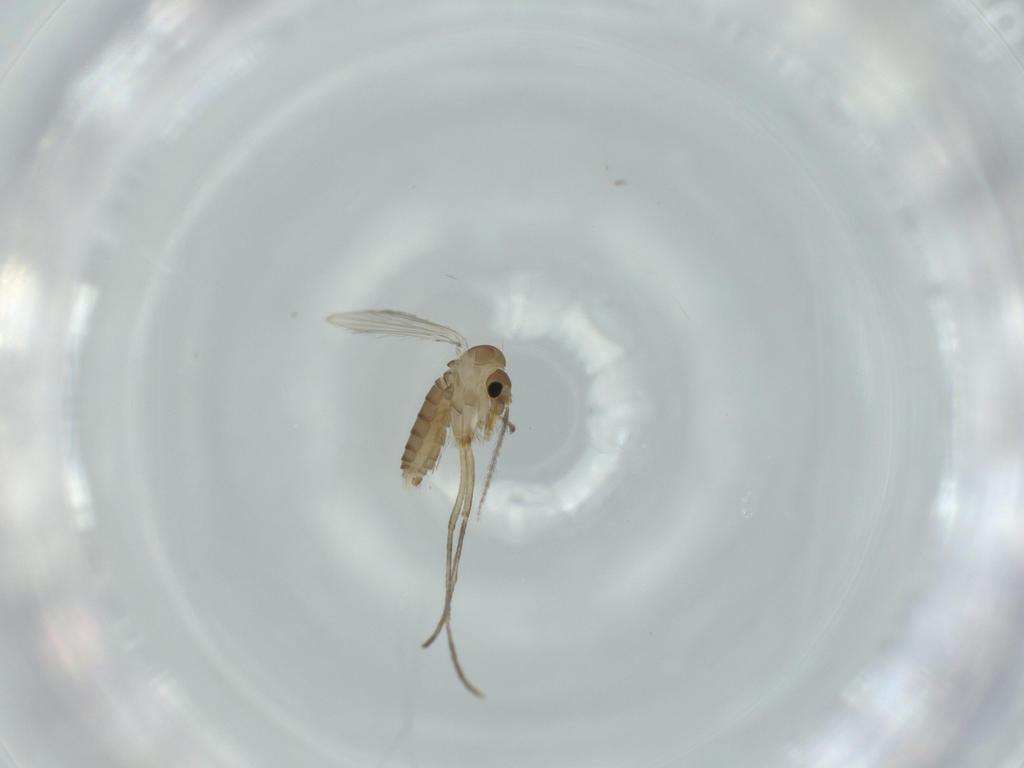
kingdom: Animalia
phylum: Arthropoda
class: Insecta
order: Diptera
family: Psychodidae
